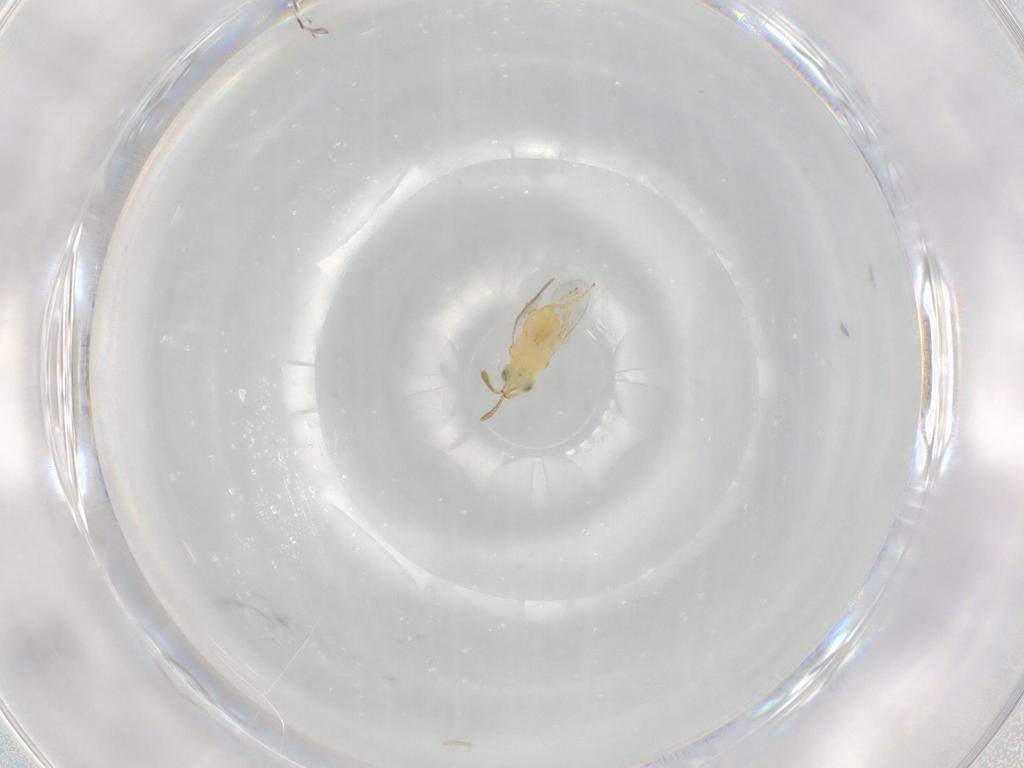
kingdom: Animalia
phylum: Arthropoda
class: Insecta
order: Hymenoptera
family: Encyrtidae
